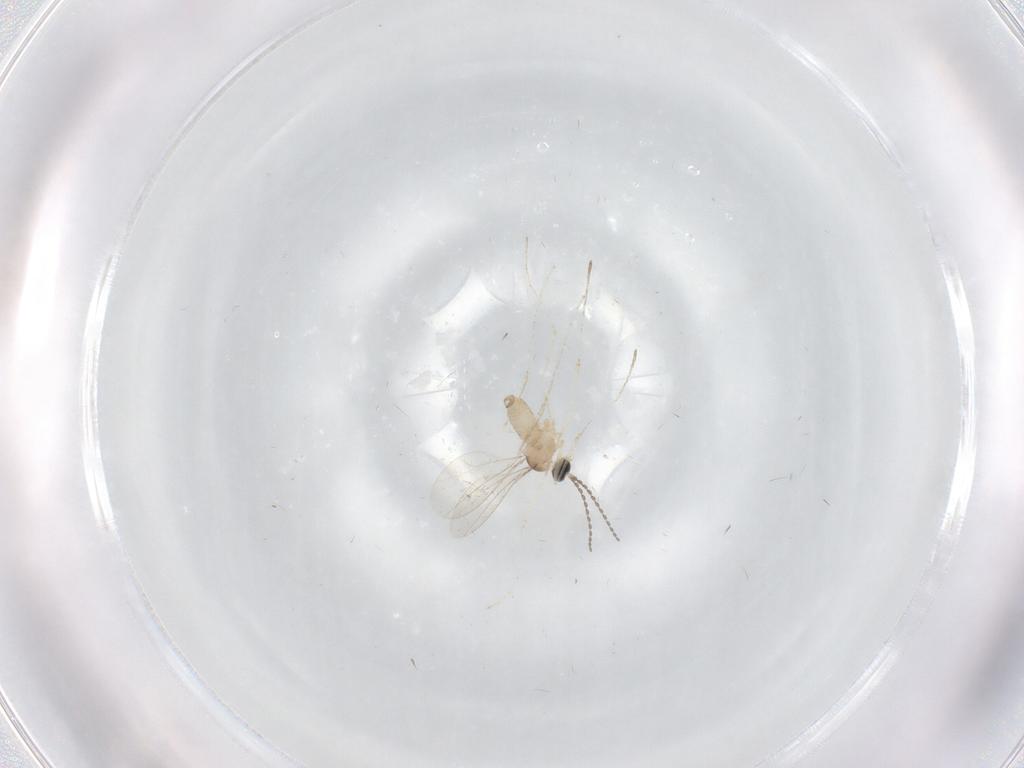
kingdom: Animalia
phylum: Arthropoda
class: Insecta
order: Diptera
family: Cecidomyiidae
